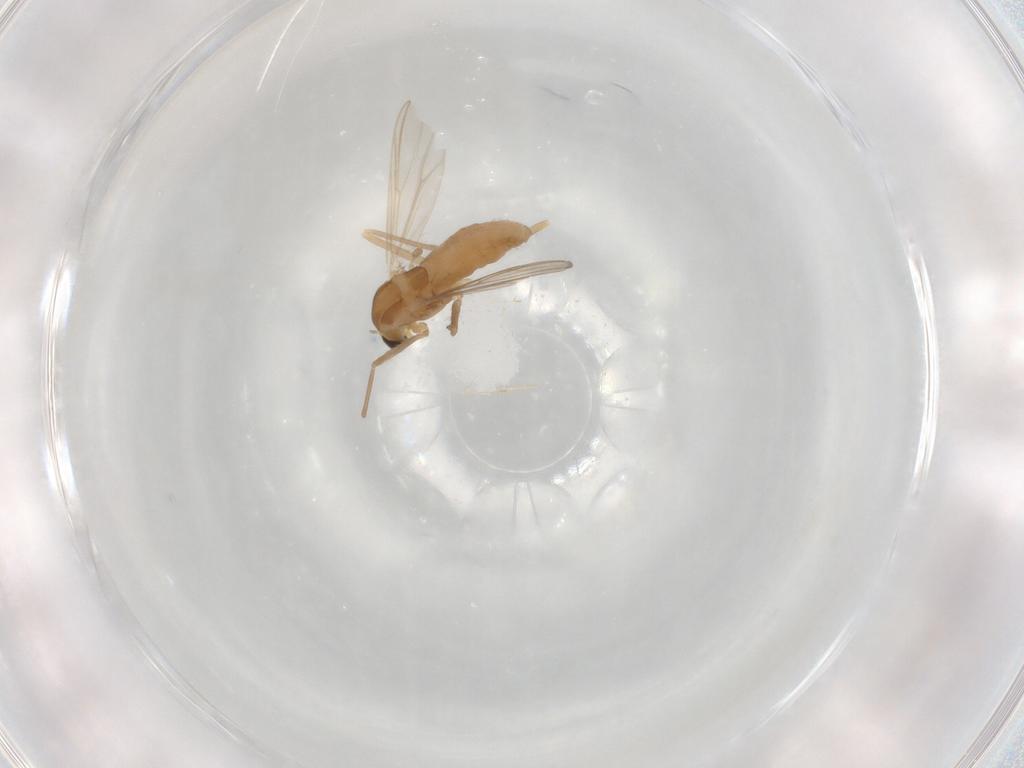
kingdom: Animalia
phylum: Arthropoda
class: Insecta
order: Diptera
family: Chironomidae
